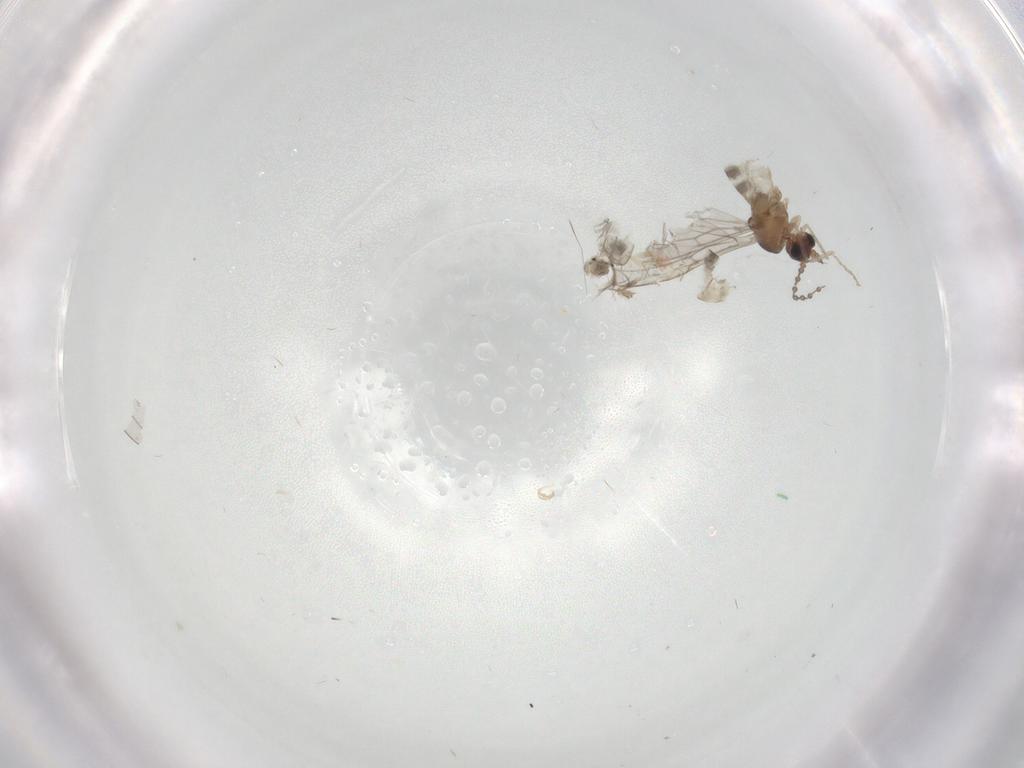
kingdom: Animalia
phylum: Arthropoda
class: Insecta
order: Diptera
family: Cecidomyiidae
